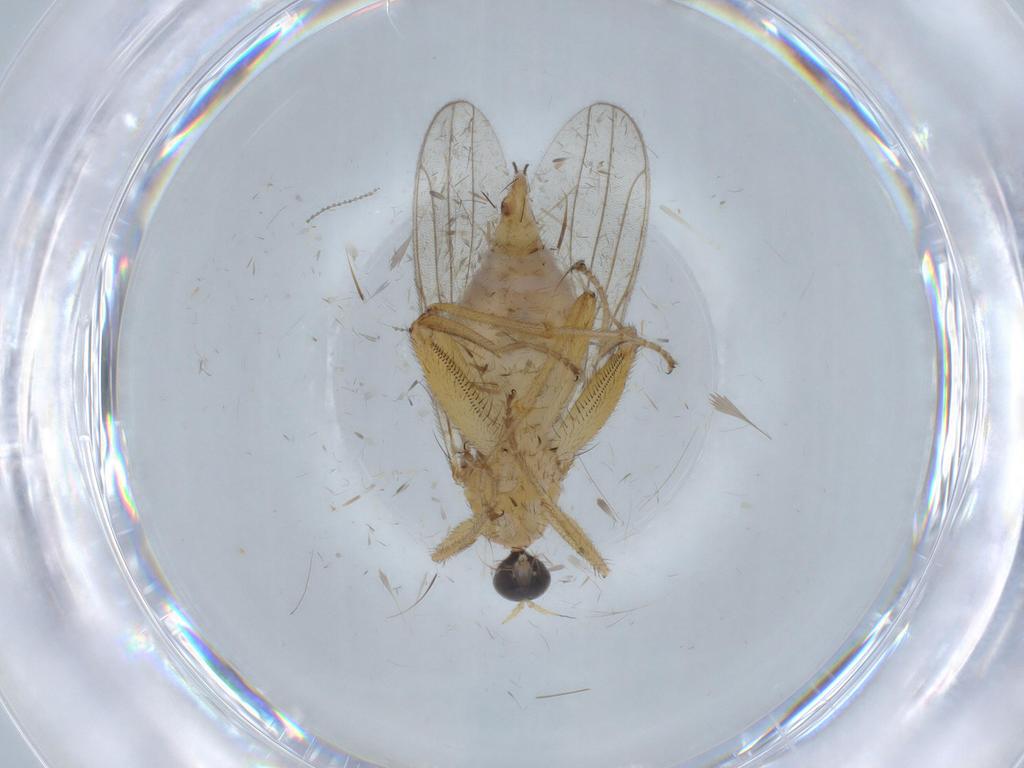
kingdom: Animalia
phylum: Arthropoda
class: Insecta
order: Diptera
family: Hybotidae
